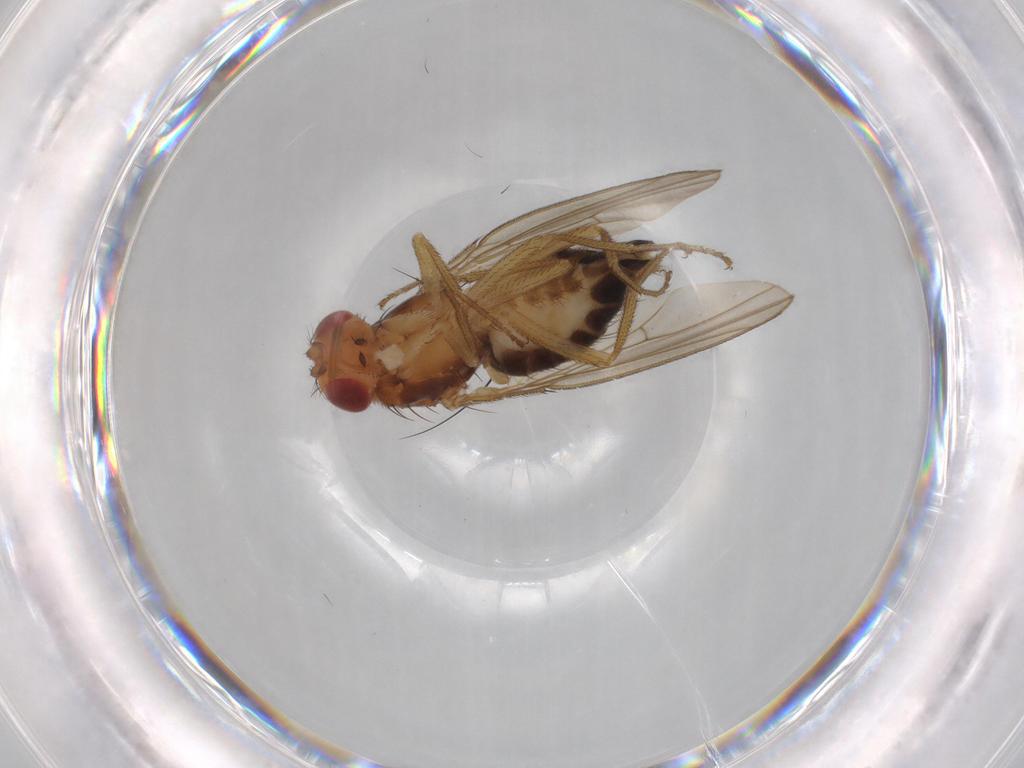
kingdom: Animalia
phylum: Arthropoda
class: Insecta
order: Diptera
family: Drosophilidae
